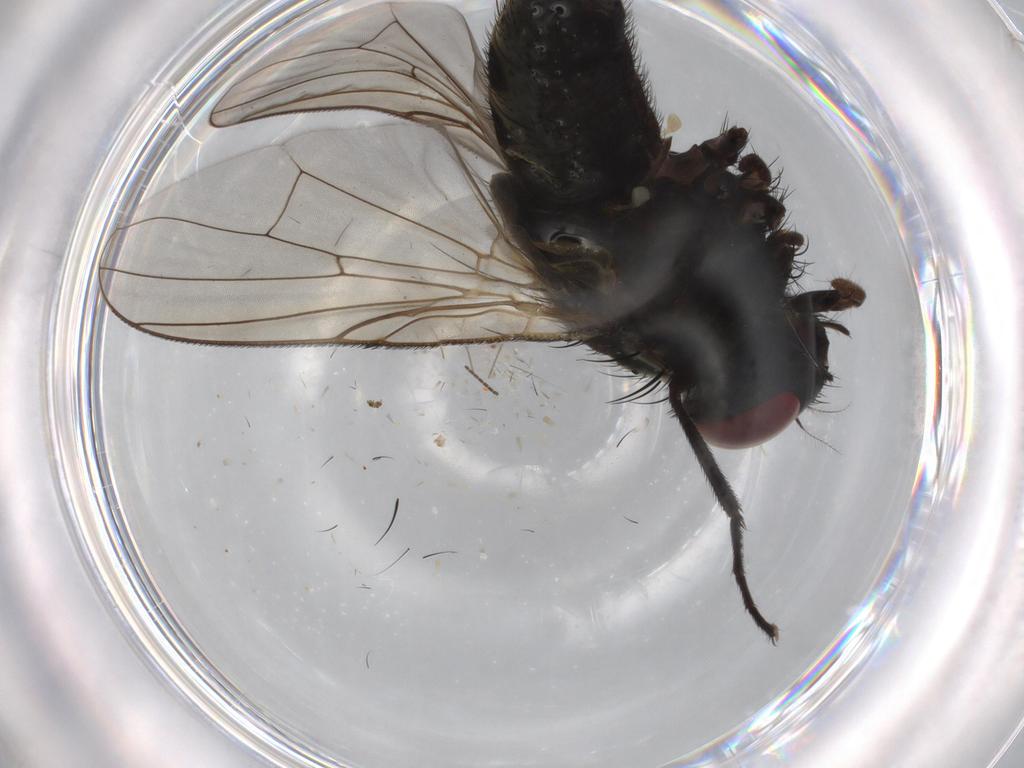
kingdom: Animalia
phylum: Arthropoda
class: Insecta
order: Diptera
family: Muscidae
